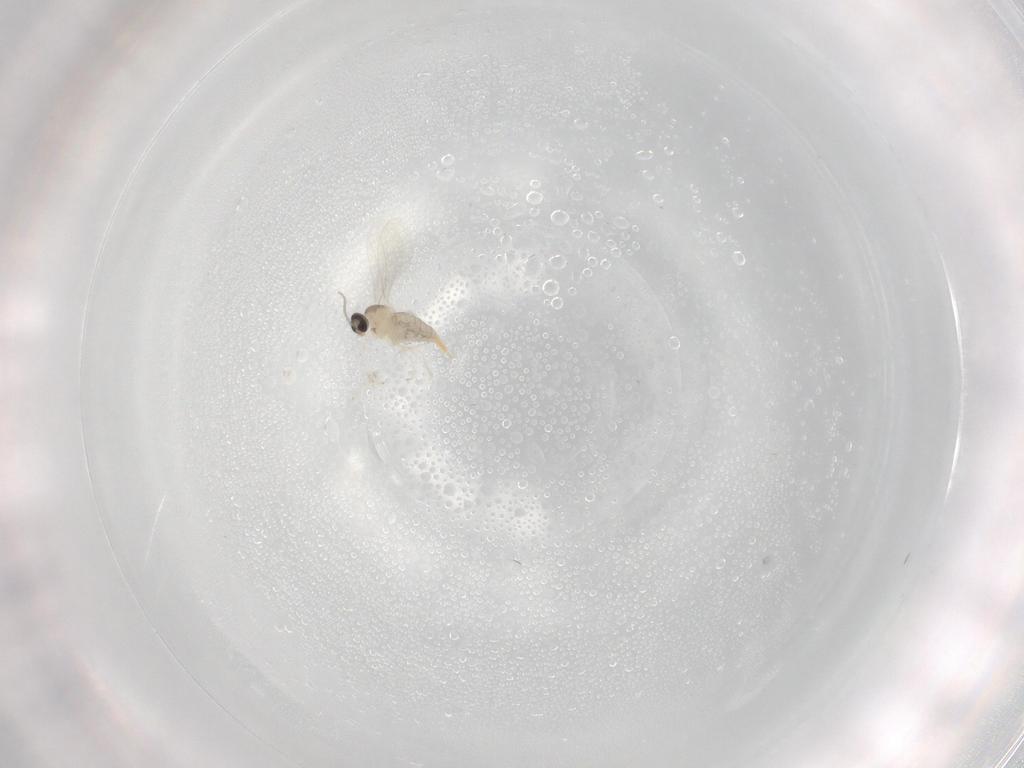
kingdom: Animalia
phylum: Arthropoda
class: Insecta
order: Diptera
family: Cecidomyiidae
